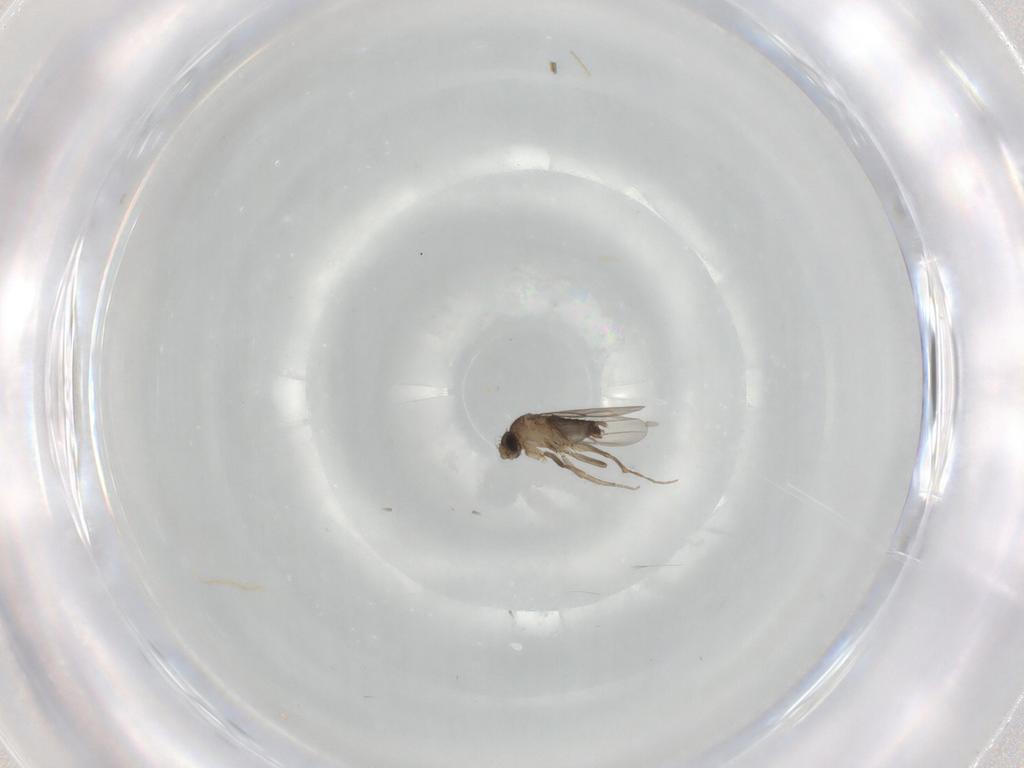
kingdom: Animalia
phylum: Arthropoda
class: Insecta
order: Diptera
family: Phoridae
